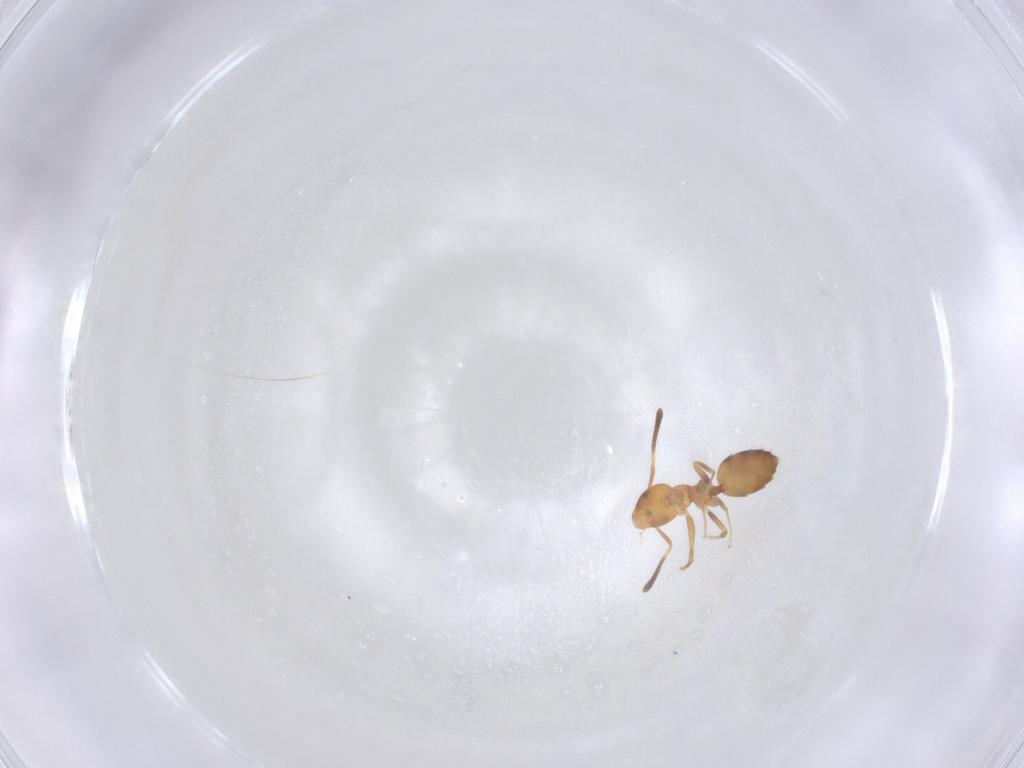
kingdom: Animalia
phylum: Arthropoda
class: Insecta
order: Hymenoptera
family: Formicidae
